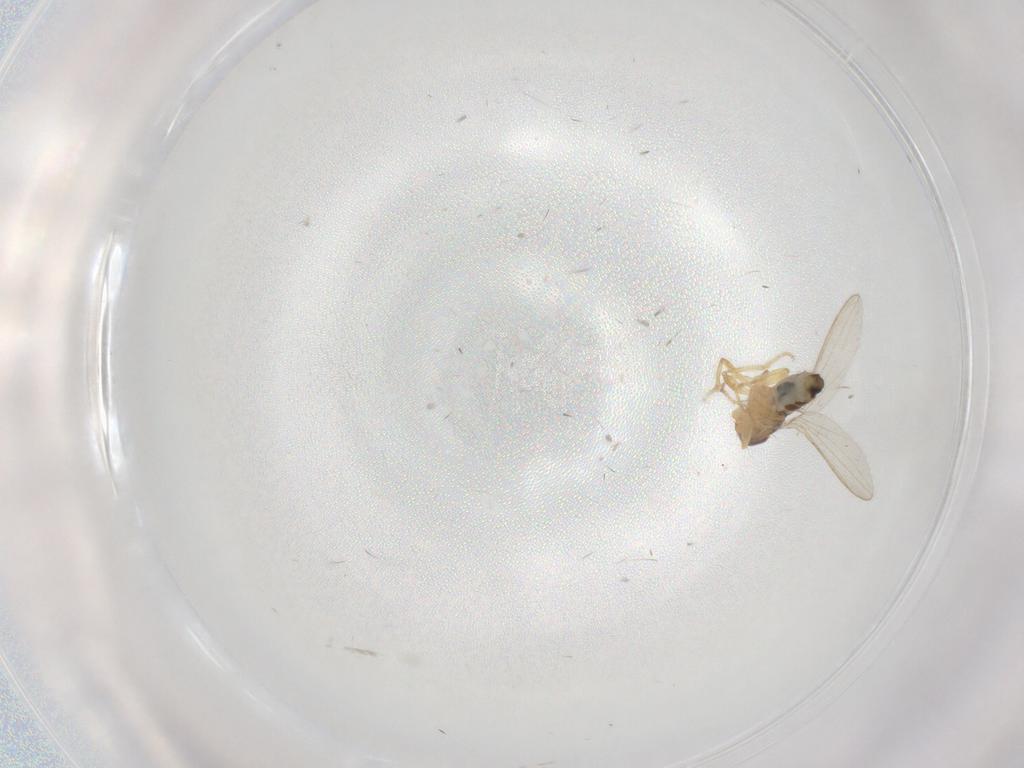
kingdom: Animalia
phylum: Arthropoda
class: Insecta
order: Diptera
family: Periscelididae
